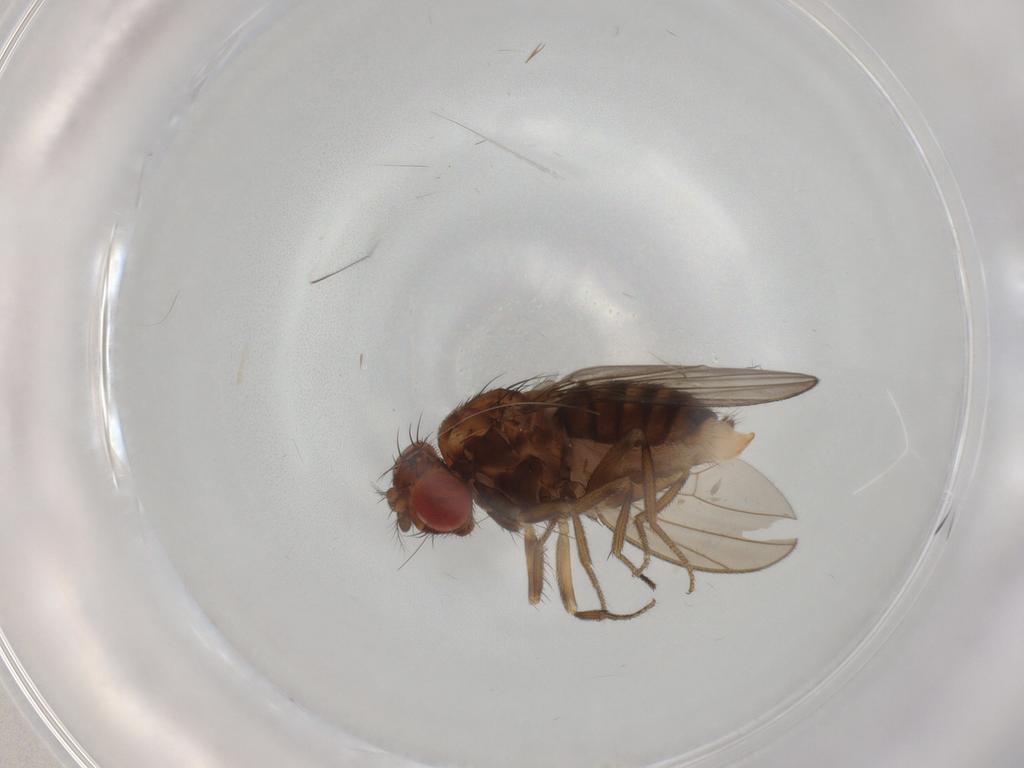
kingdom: Animalia
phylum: Arthropoda
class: Insecta
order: Diptera
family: Drosophilidae
